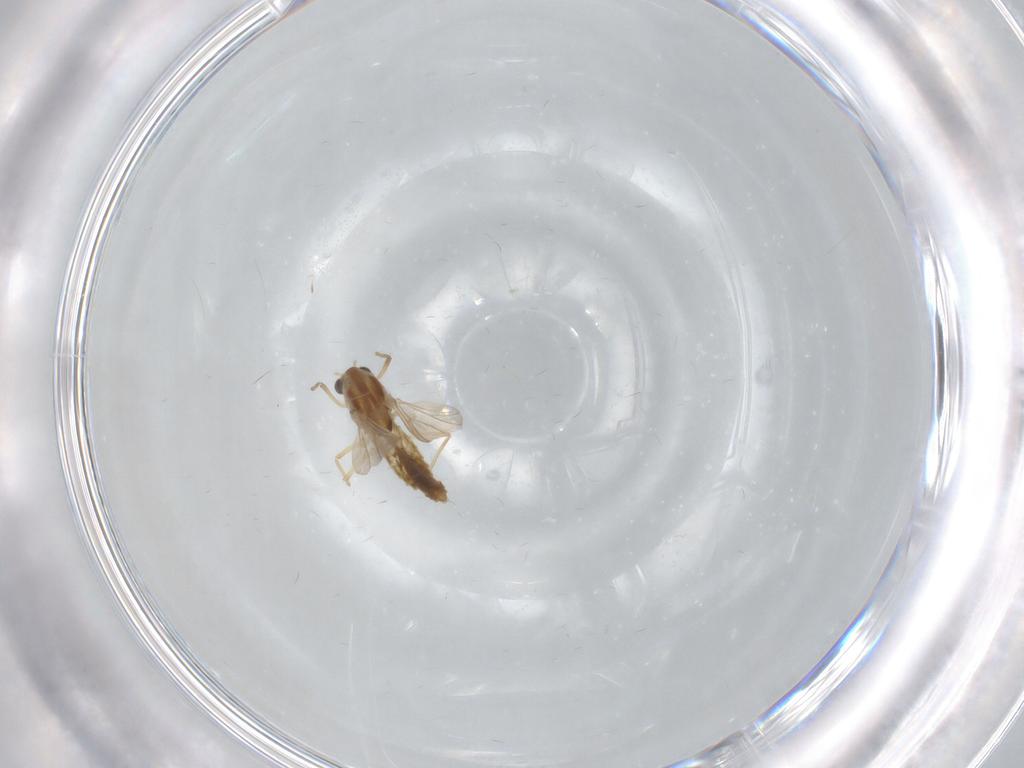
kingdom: Animalia
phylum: Arthropoda
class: Insecta
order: Diptera
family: Chironomidae
